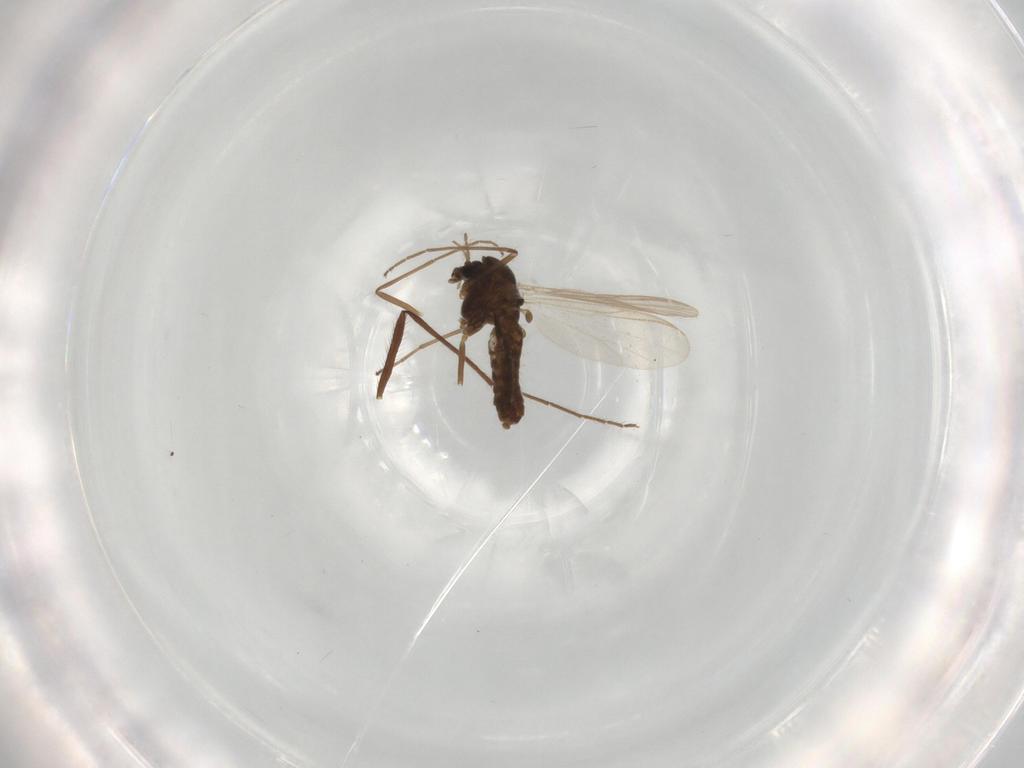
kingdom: Animalia
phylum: Arthropoda
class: Insecta
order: Diptera
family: Chironomidae
